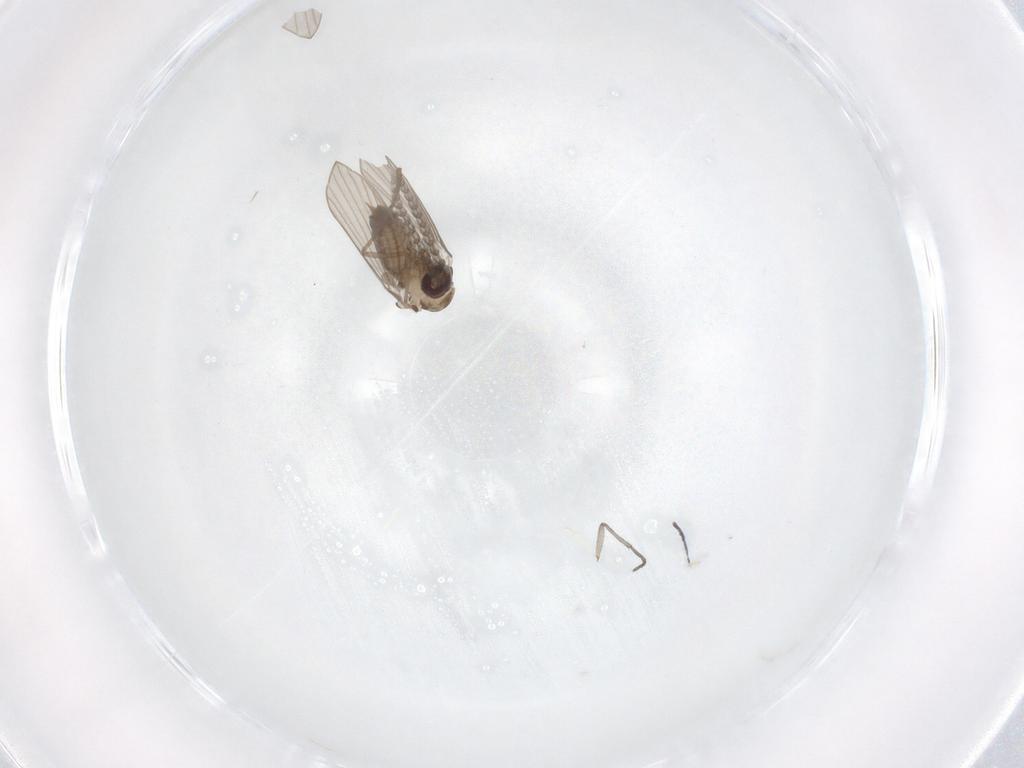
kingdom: Animalia
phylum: Arthropoda
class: Insecta
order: Diptera
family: Psychodidae
